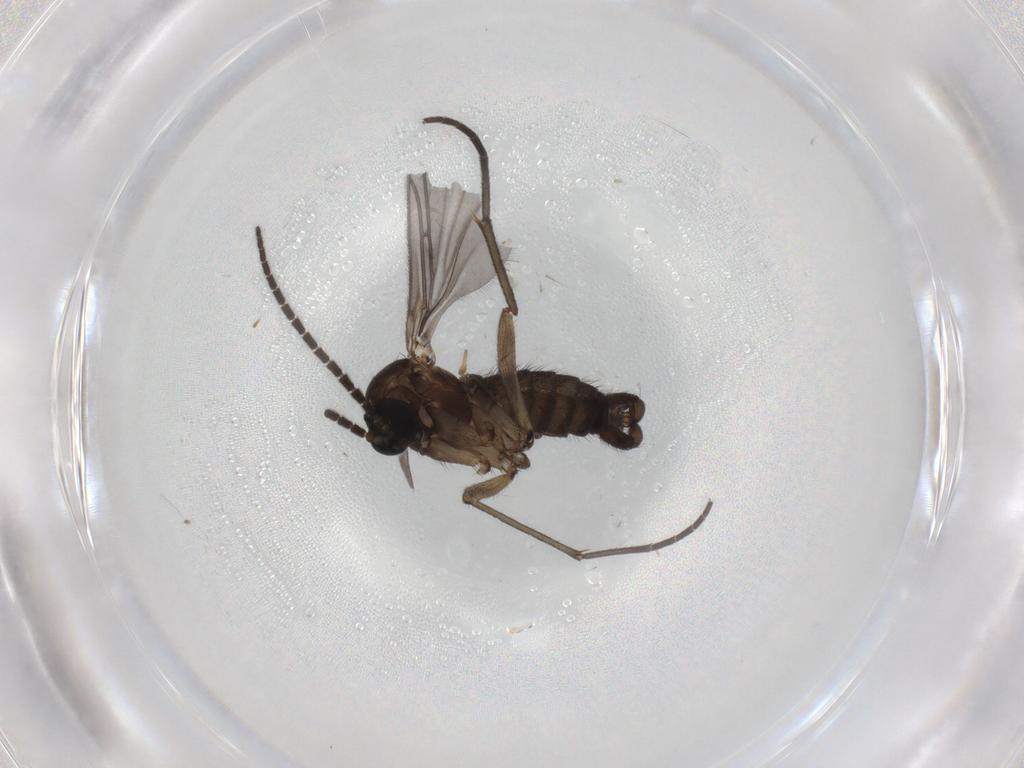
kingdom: Animalia
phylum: Arthropoda
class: Insecta
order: Diptera
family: Sciaridae
